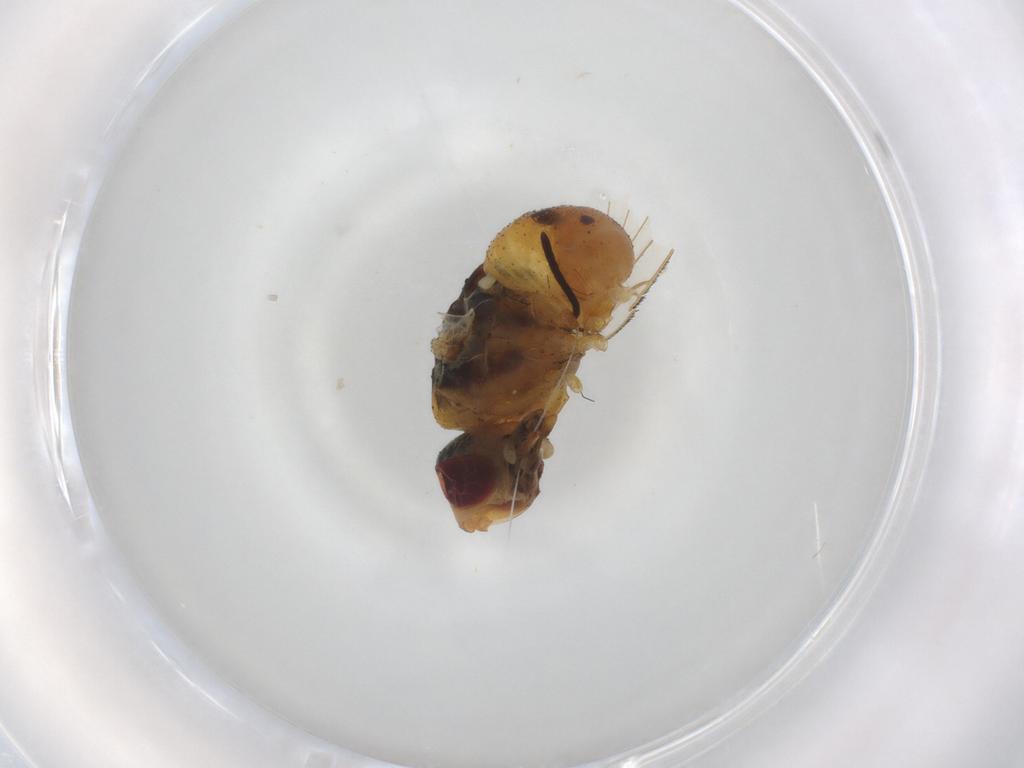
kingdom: Animalia
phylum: Arthropoda
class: Insecta
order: Diptera
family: Muscidae
